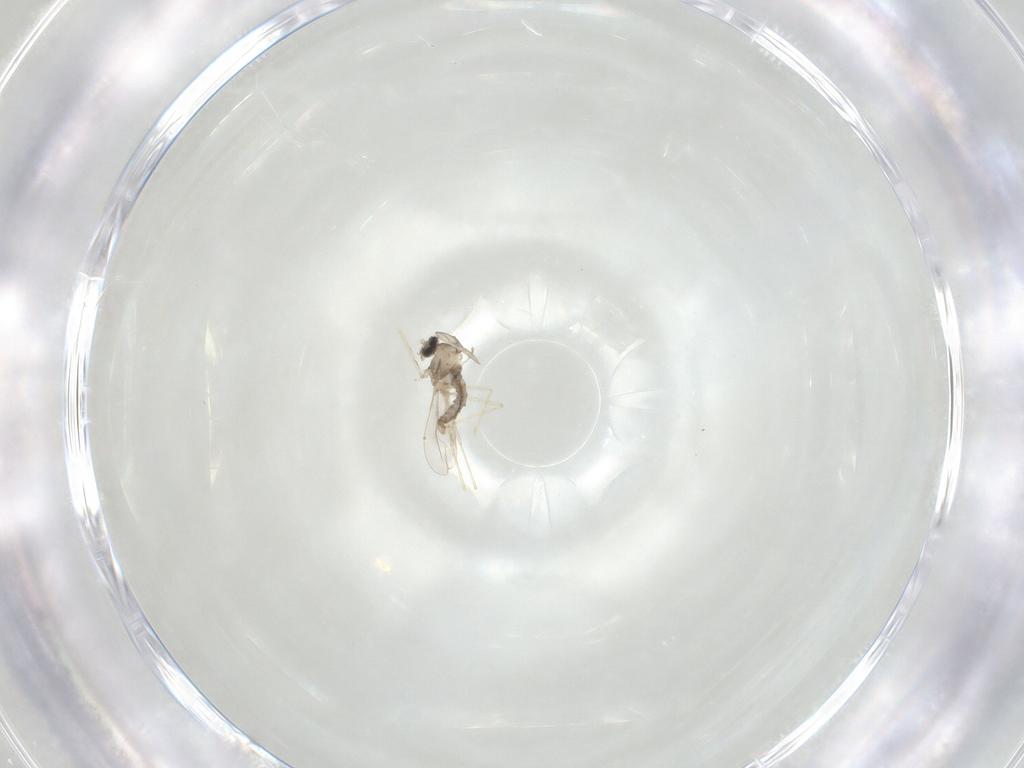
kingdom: Animalia
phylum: Arthropoda
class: Insecta
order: Diptera
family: Cecidomyiidae
